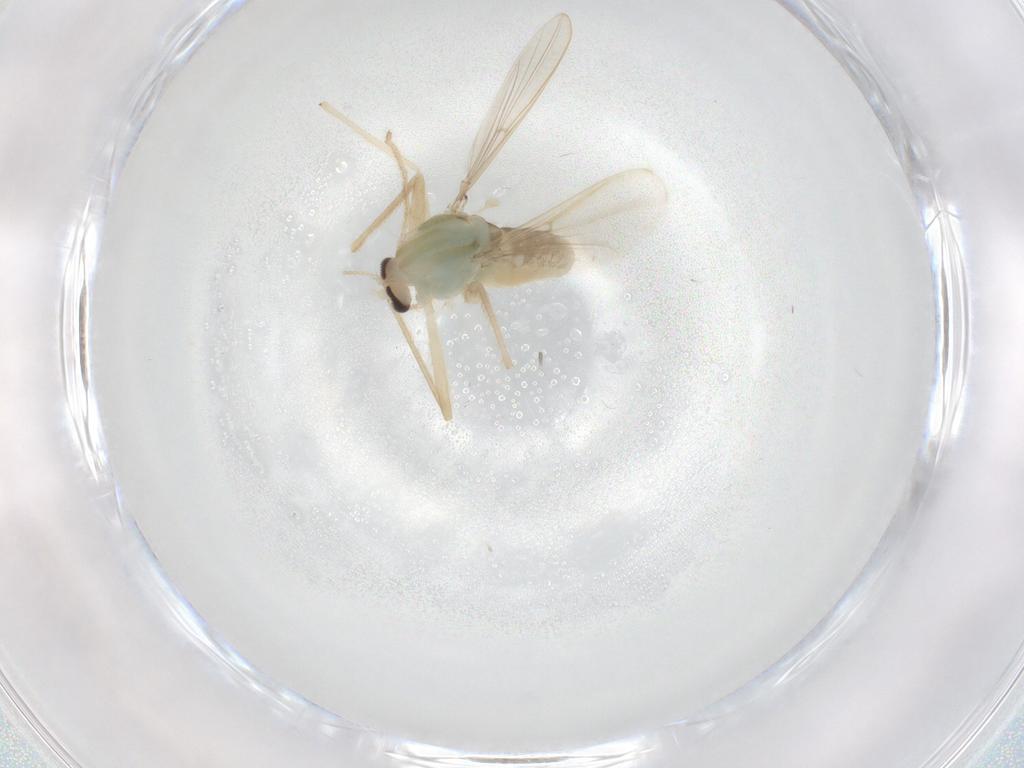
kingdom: Animalia
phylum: Arthropoda
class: Insecta
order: Diptera
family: Chironomidae
